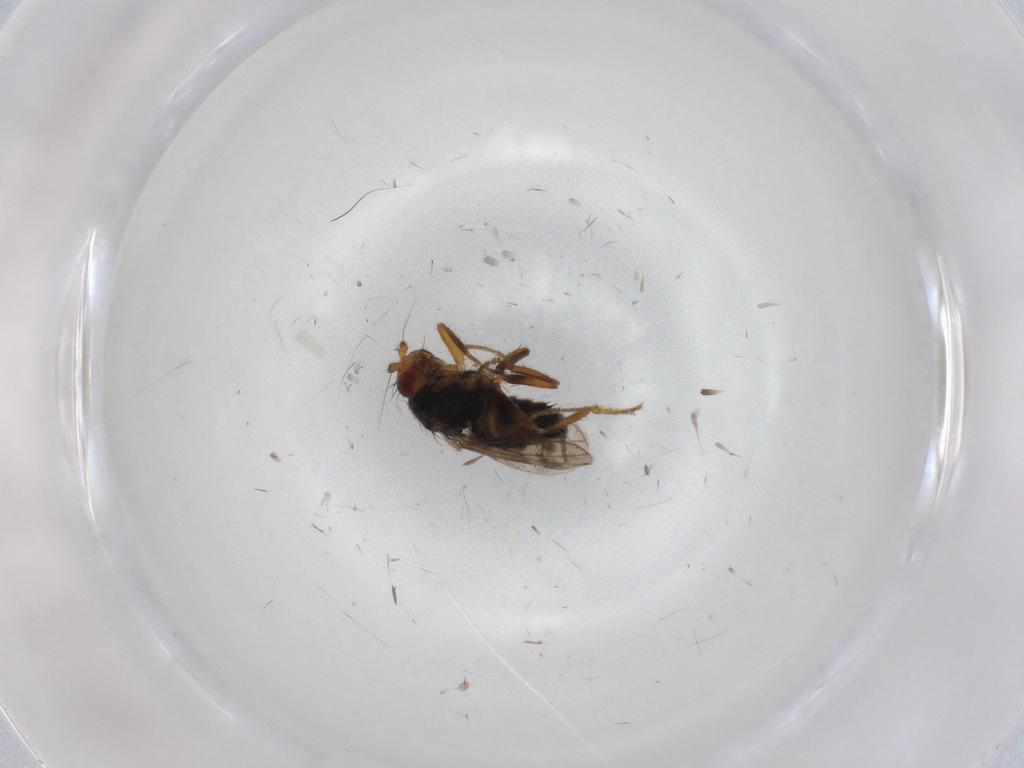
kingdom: Animalia
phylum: Arthropoda
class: Insecta
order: Diptera
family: Sphaeroceridae
